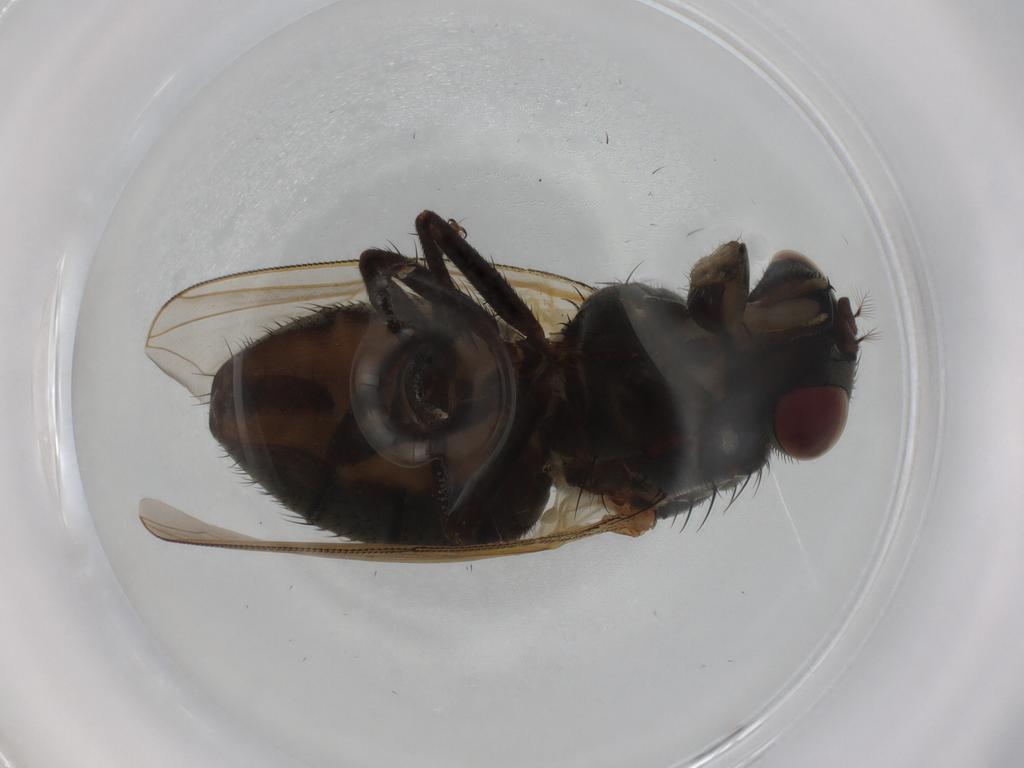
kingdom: Animalia
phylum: Arthropoda
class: Insecta
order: Diptera
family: Muscidae
